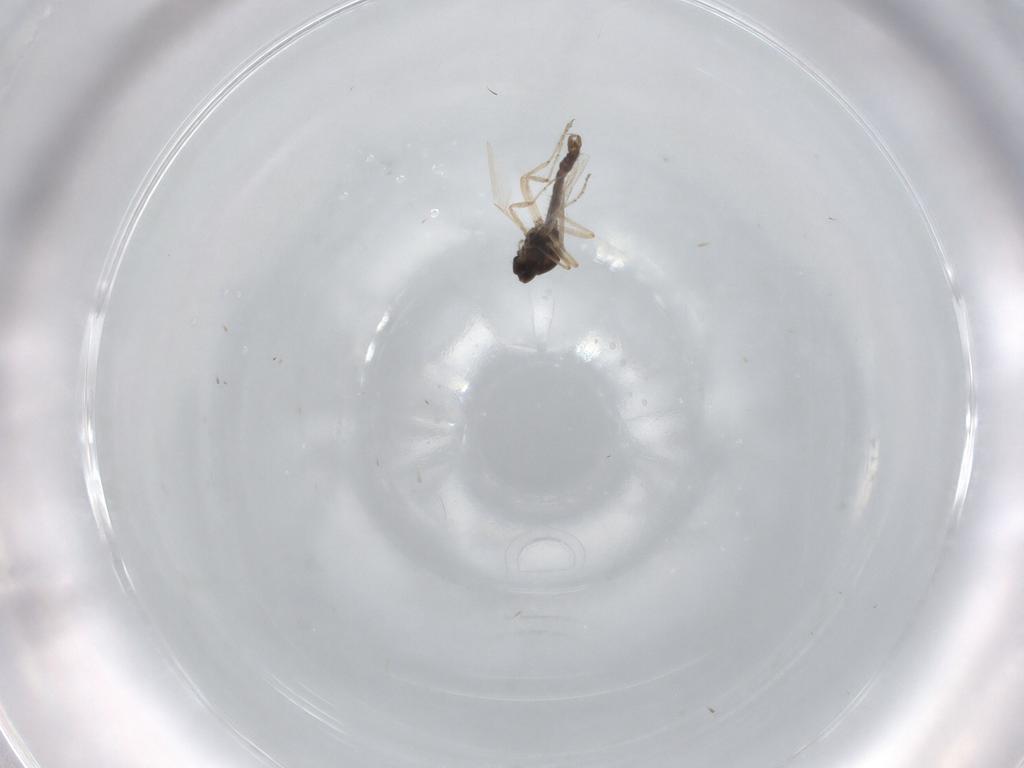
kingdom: Animalia
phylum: Arthropoda
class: Insecta
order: Diptera
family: Ceratopogonidae
